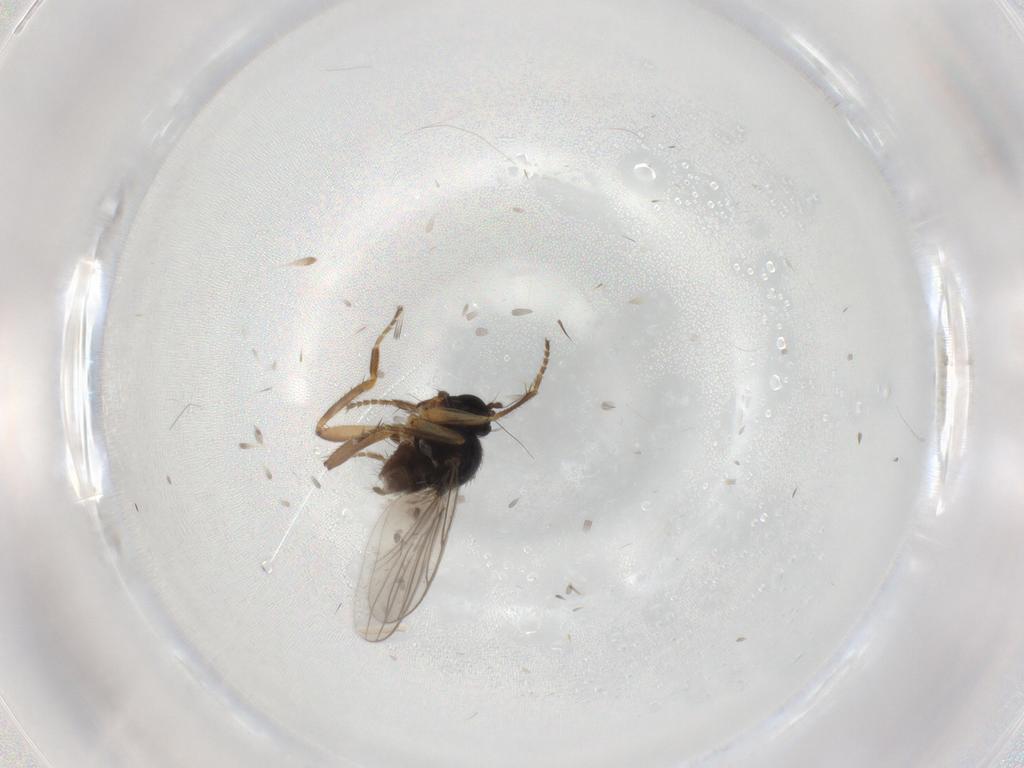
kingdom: Animalia
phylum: Arthropoda
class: Insecta
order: Diptera
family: Cecidomyiidae
